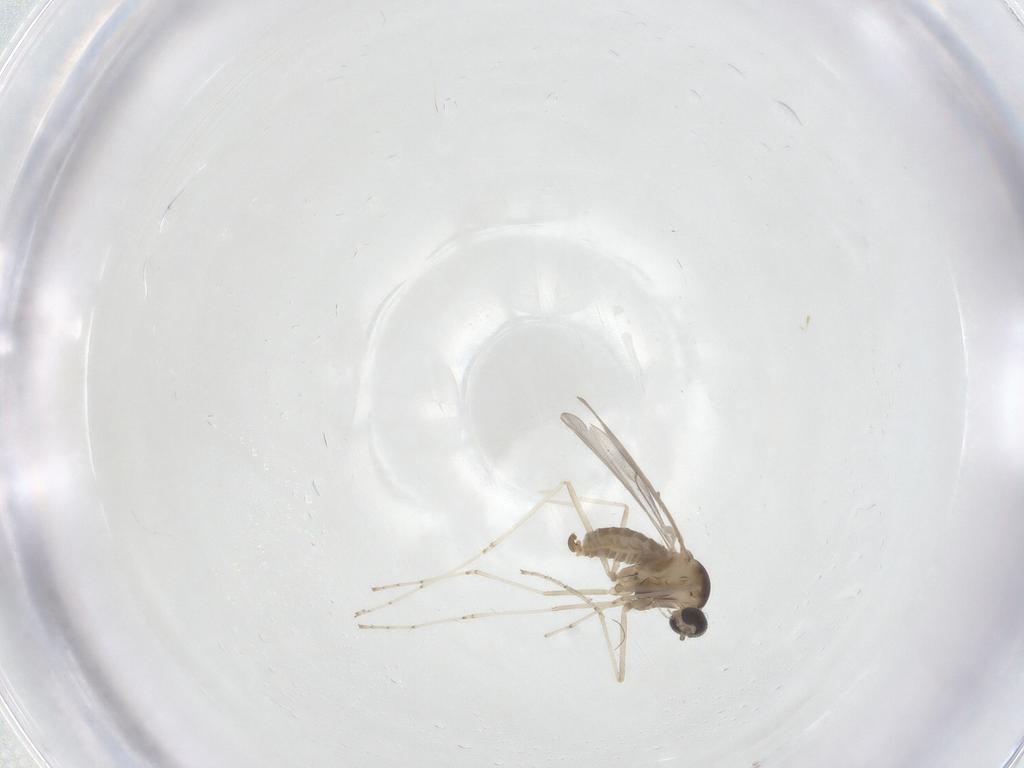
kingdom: Animalia
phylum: Arthropoda
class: Insecta
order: Diptera
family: Cecidomyiidae
